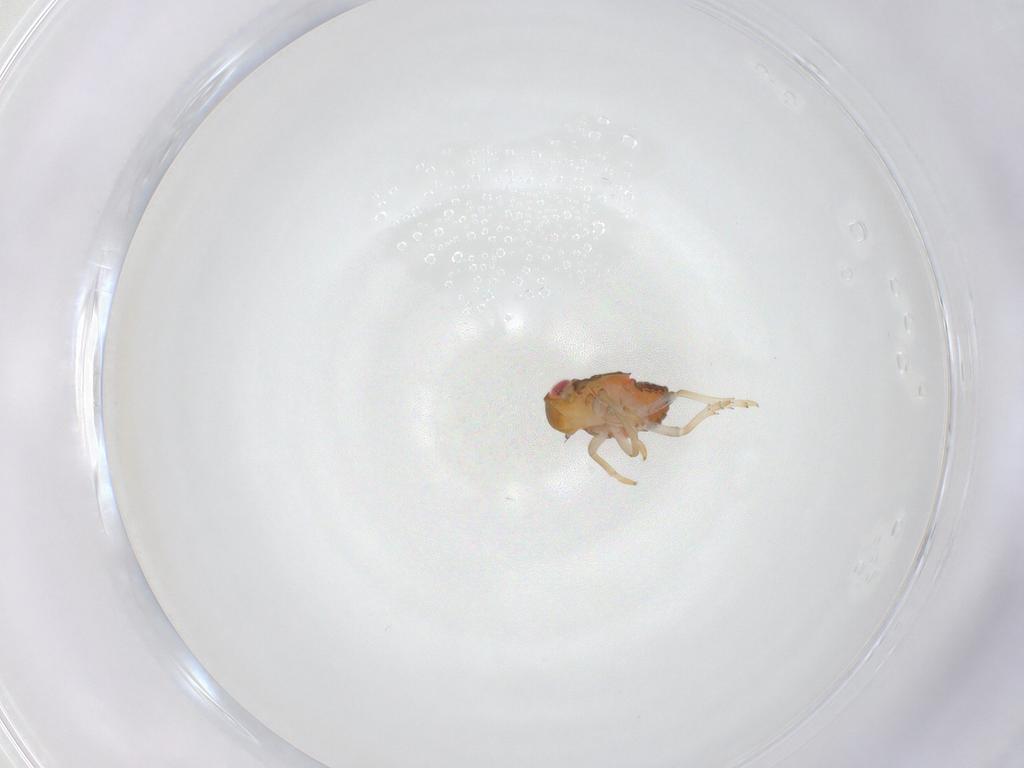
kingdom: Animalia
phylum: Arthropoda
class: Insecta
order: Hemiptera
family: Issidae
